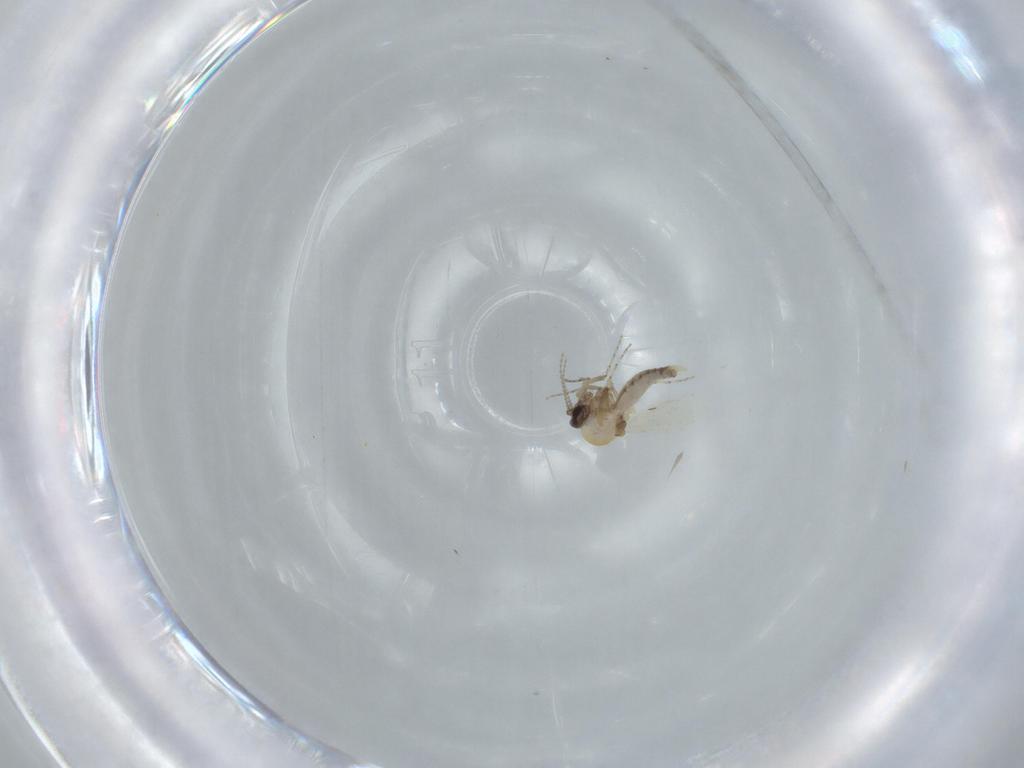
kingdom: Animalia
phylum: Arthropoda
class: Insecta
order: Diptera
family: Ceratopogonidae
